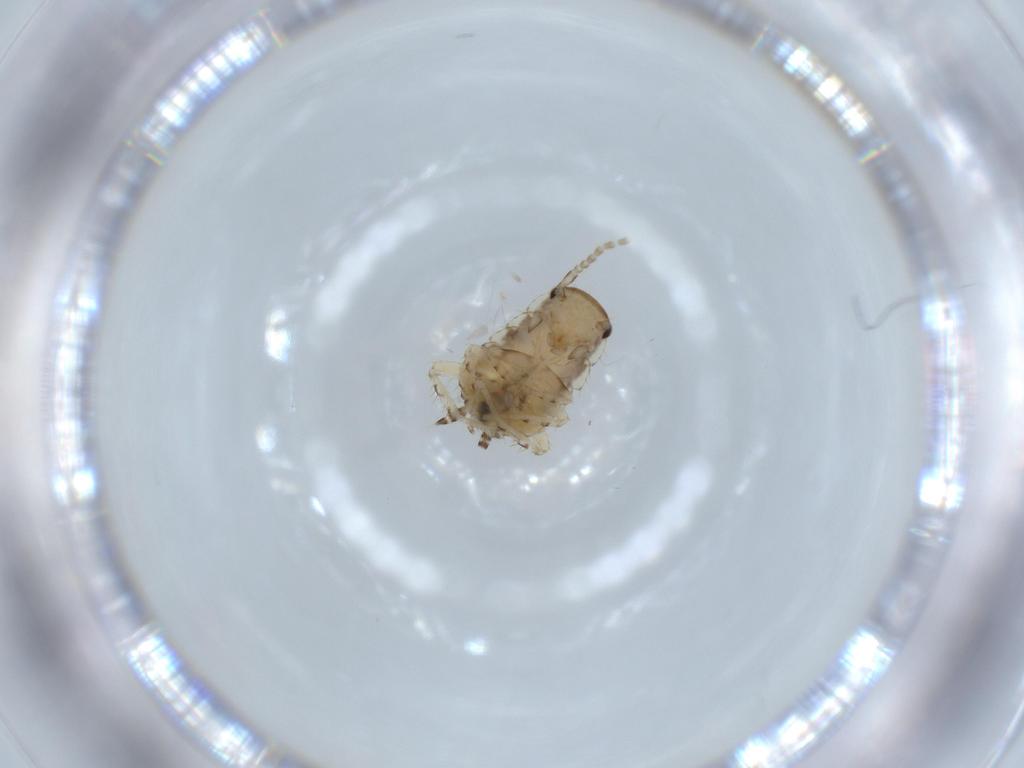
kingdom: Animalia
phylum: Arthropoda
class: Insecta
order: Blattodea
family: Ectobiidae
